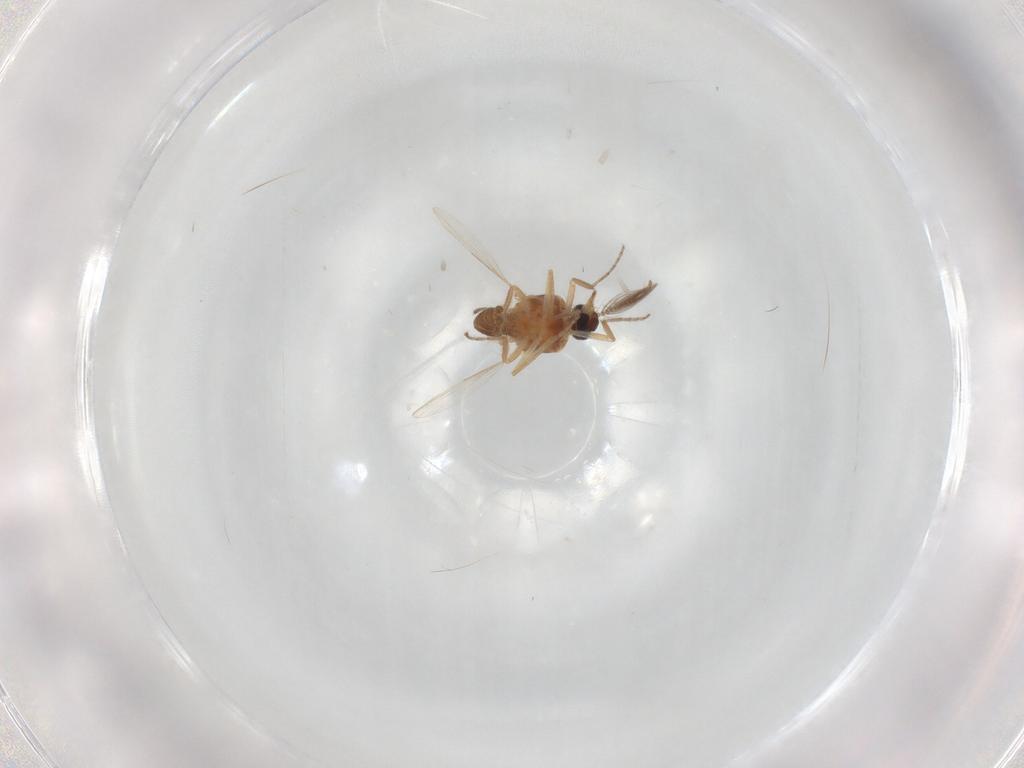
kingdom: Animalia
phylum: Arthropoda
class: Insecta
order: Diptera
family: Ceratopogonidae
